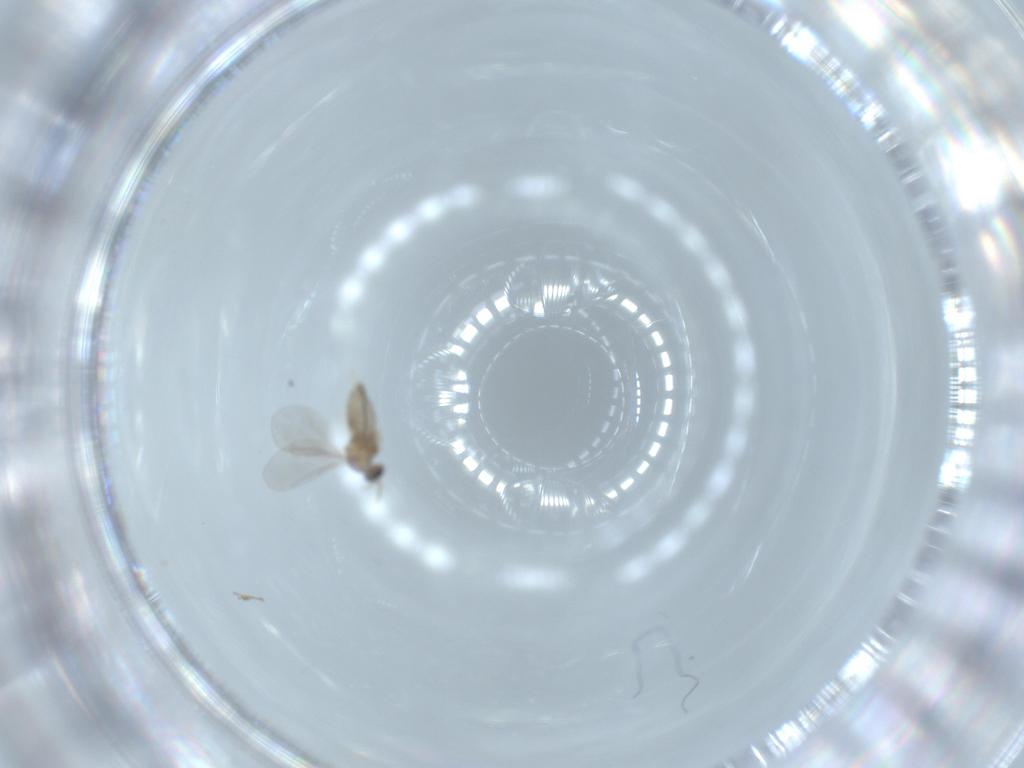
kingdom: Animalia
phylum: Arthropoda
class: Insecta
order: Diptera
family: Cecidomyiidae
